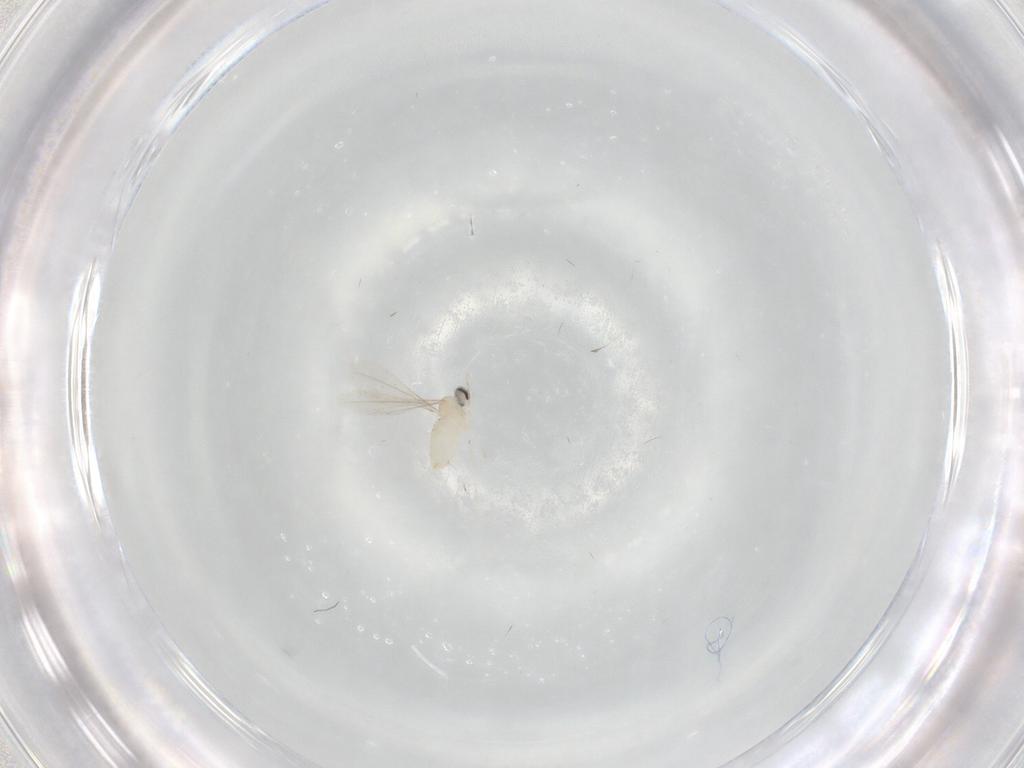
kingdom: Animalia
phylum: Arthropoda
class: Insecta
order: Diptera
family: Cecidomyiidae
